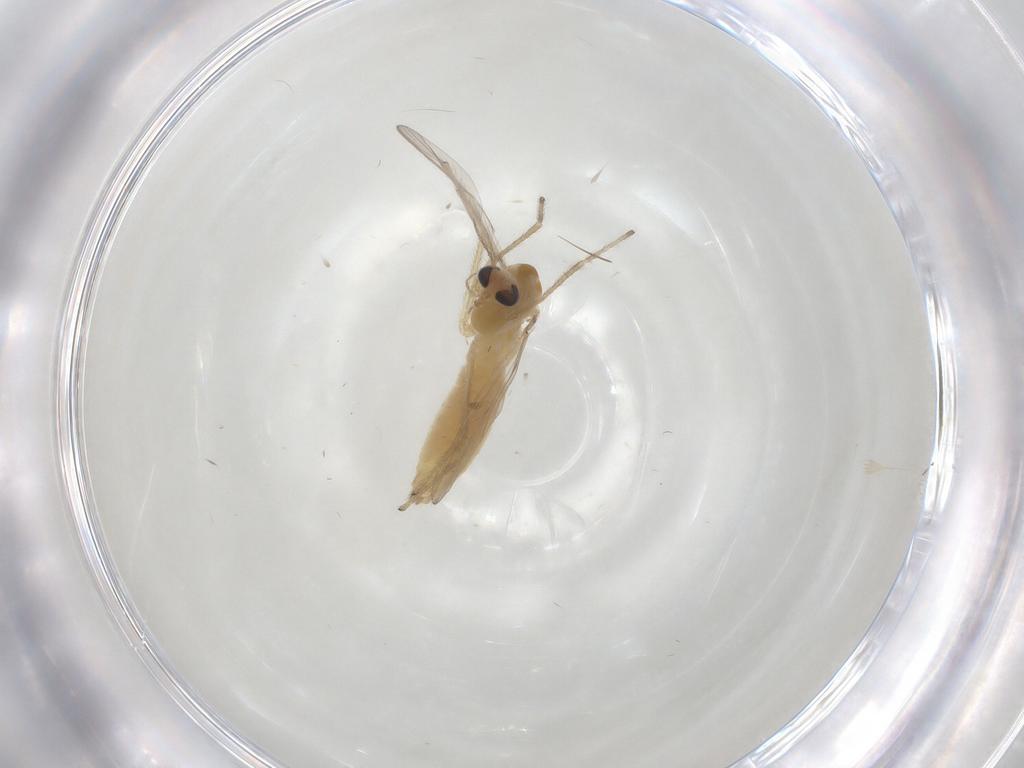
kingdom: Animalia
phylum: Arthropoda
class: Insecta
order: Diptera
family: Chironomidae
